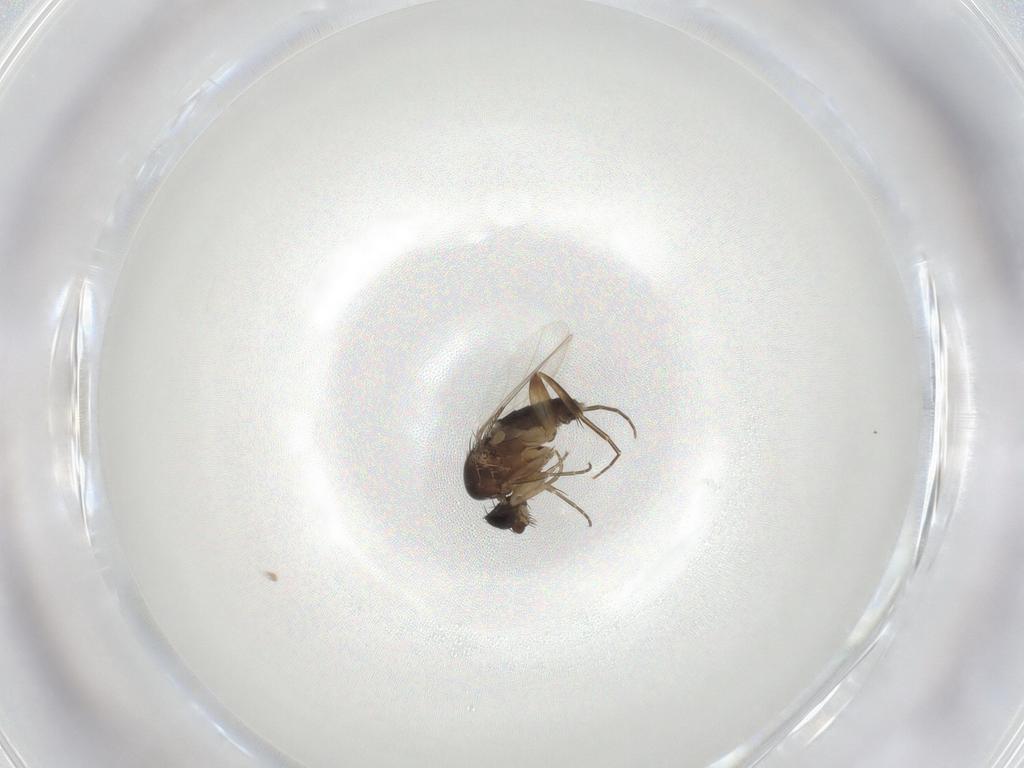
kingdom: Animalia
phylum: Arthropoda
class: Insecta
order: Diptera
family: Phoridae
